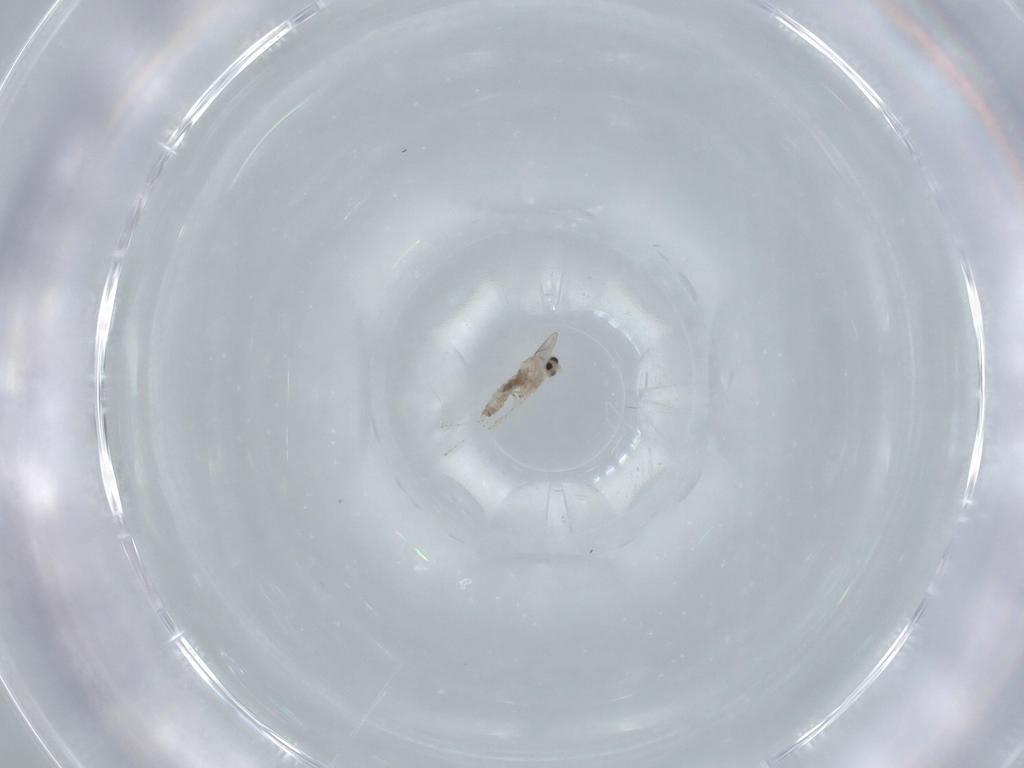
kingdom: Animalia
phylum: Arthropoda
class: Insecta
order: Diptera
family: Cecidomyiidae
